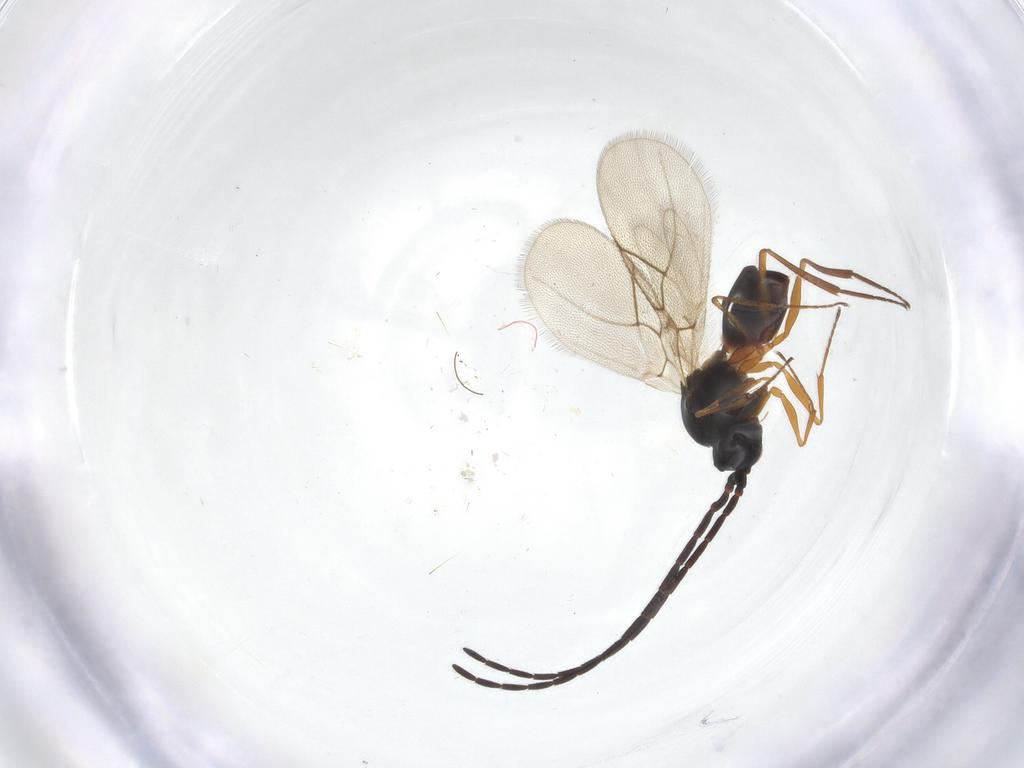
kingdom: Animalia
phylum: Arthropoda
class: Insecta
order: Hymenoptera
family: Figitidae
